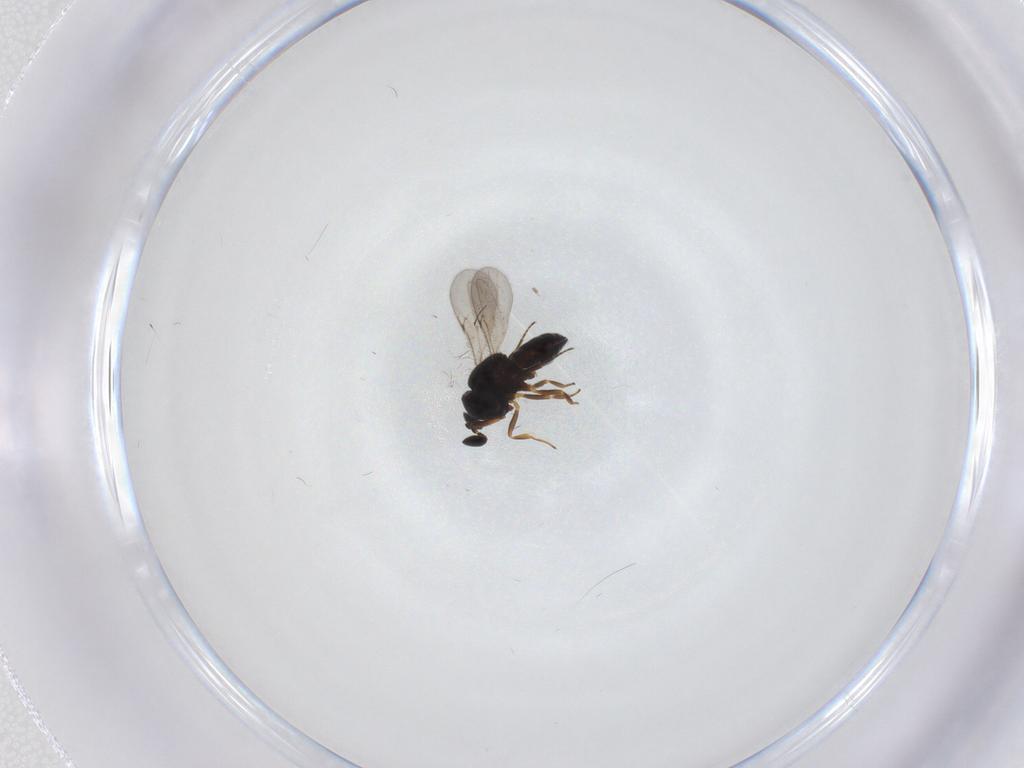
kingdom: Animalia
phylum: Arthropoda
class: Insecta
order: Hymenoptera
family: Scelionidae
